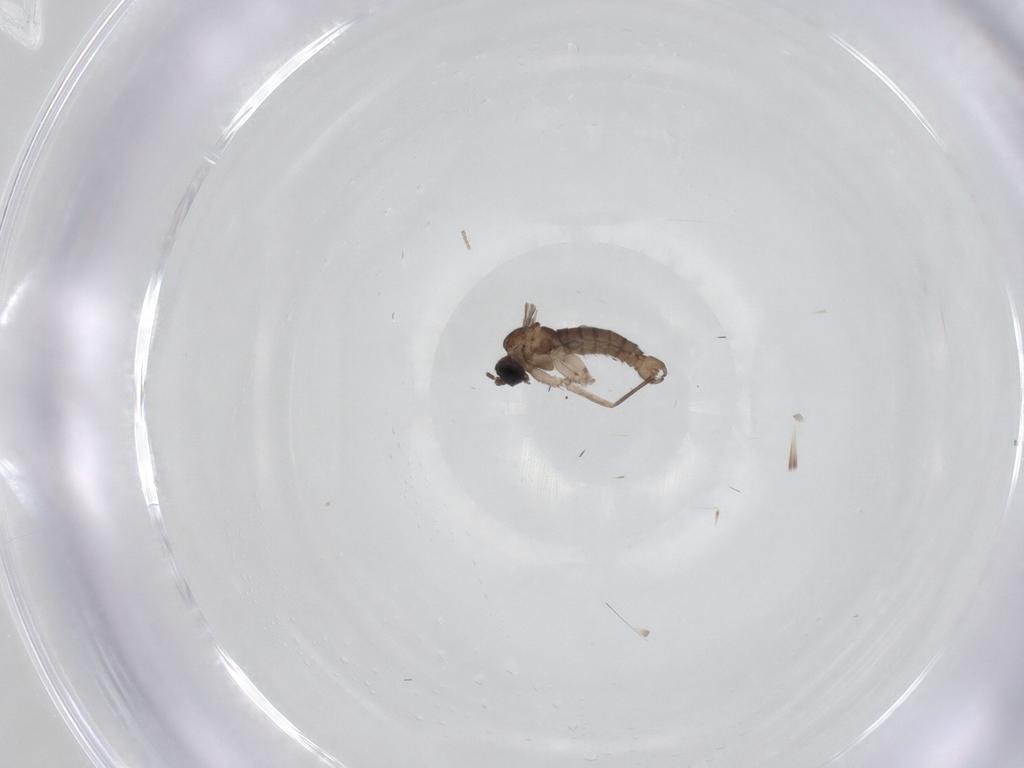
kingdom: Animalia
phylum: Arthropoda
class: Insecta
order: Diptera
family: Sciaridae
